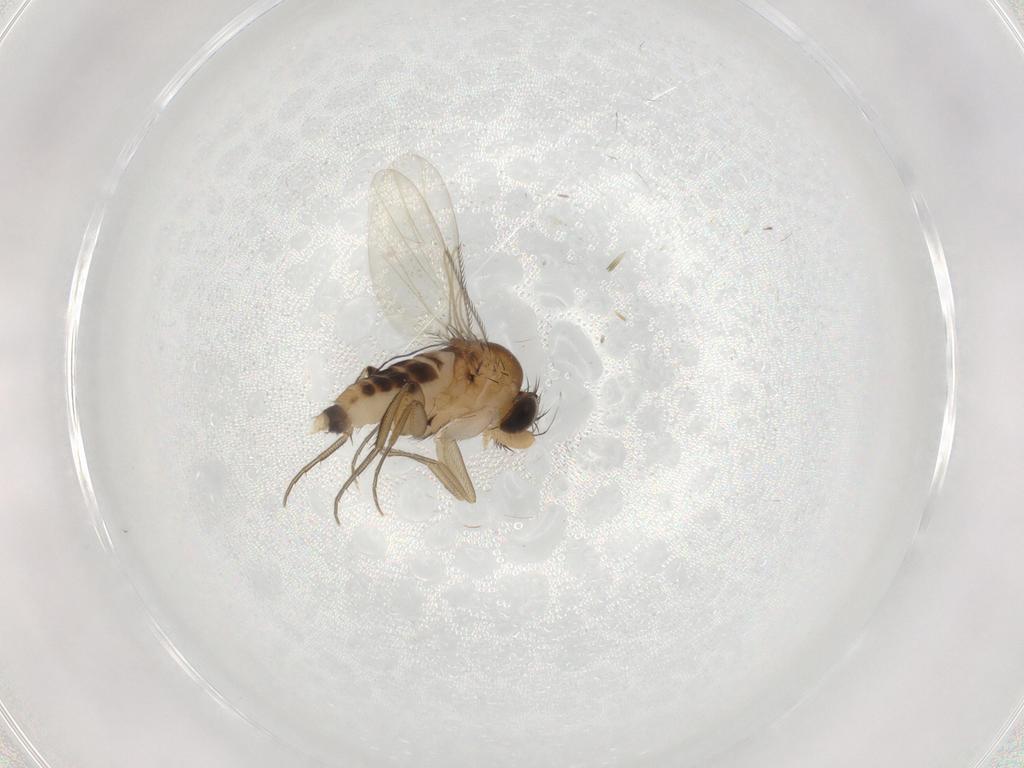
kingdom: Animalia
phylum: Arthropoda
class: Insecta
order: Diptera
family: Phoridae
